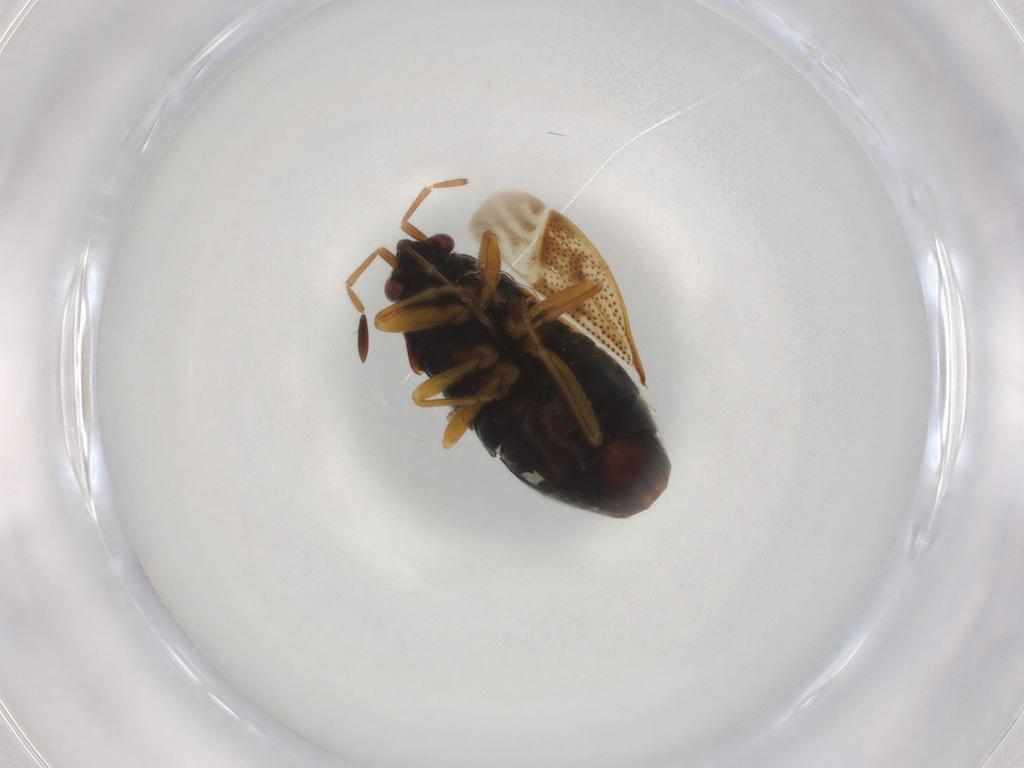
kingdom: Animalia
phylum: Arthropoda
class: Insecta
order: Hemiptera
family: Rhyparochromidae
